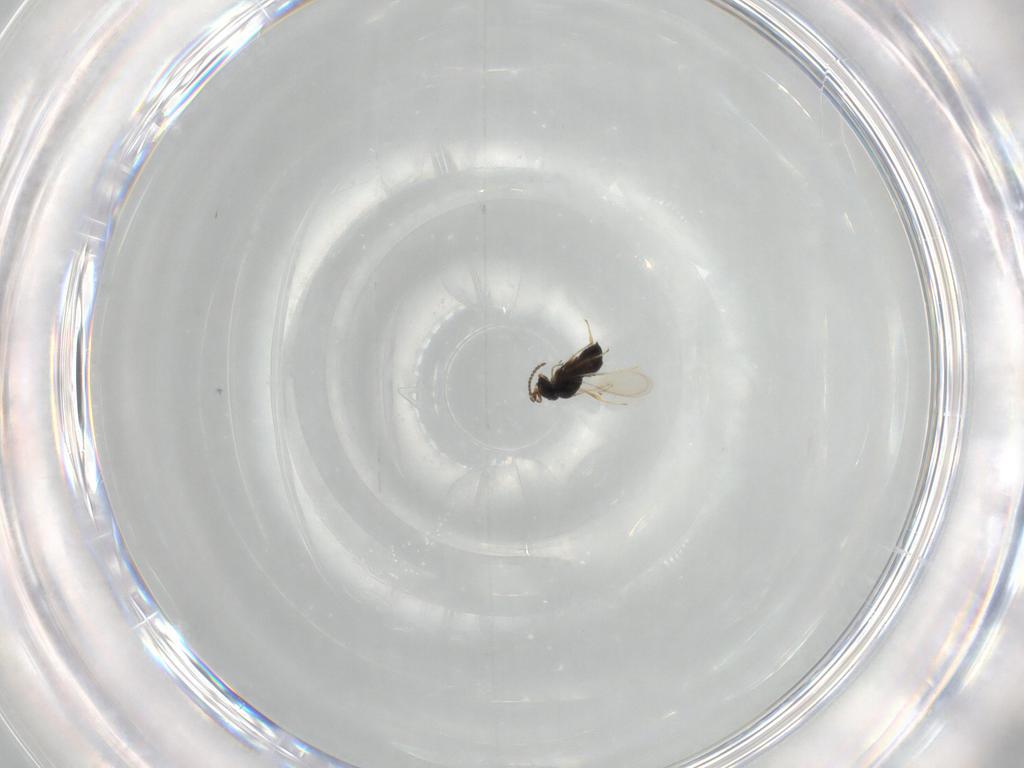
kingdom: Animalia
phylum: Arthropoda
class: Insecta
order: Hymenoptera
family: Scelionidae
